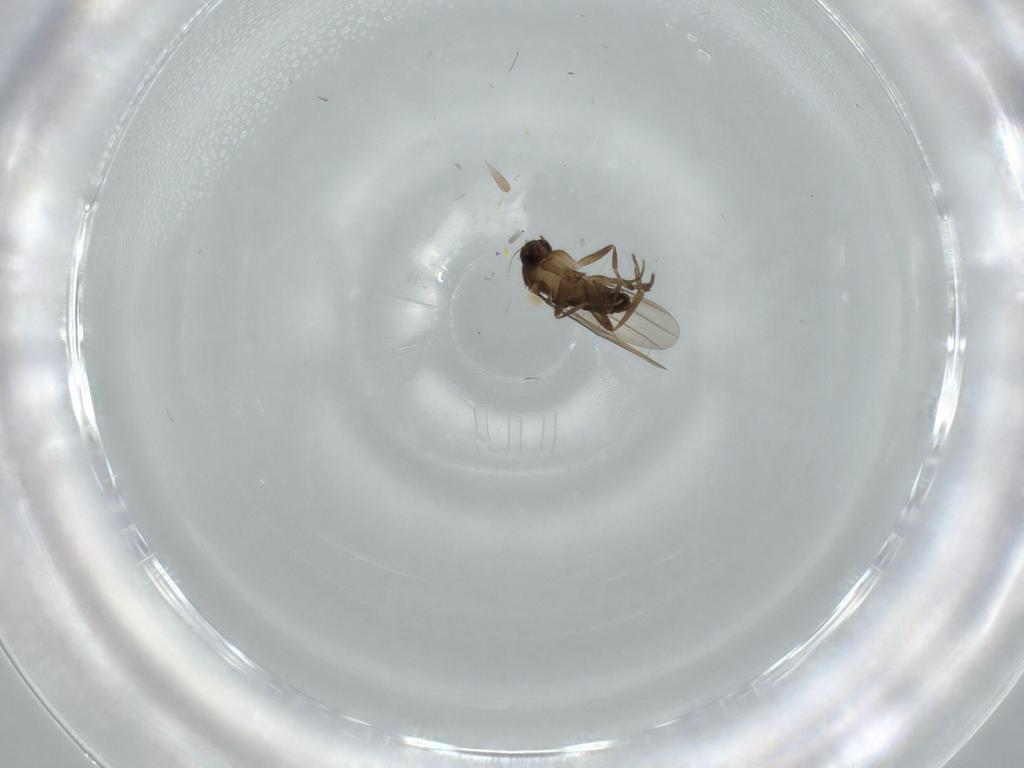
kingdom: Animalia
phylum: Arthropoda
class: Insecta
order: Diptera
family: Phoridae
